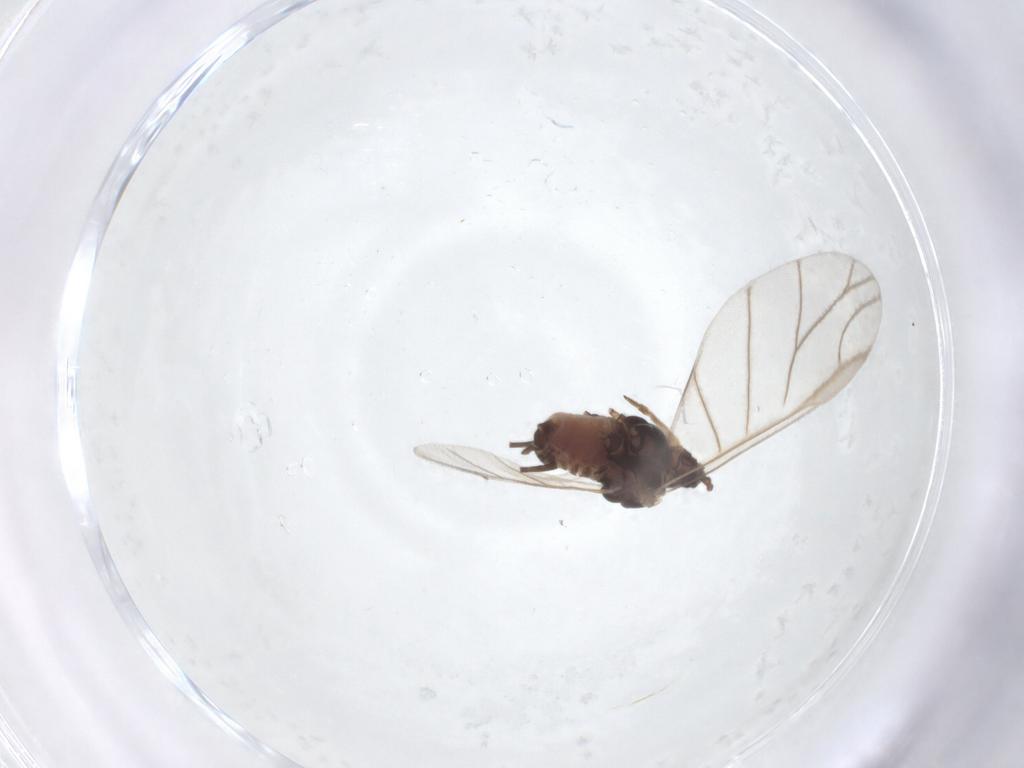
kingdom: Animalia
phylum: Arthropoda
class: Insecta
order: Hemiptera
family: Aphididae
